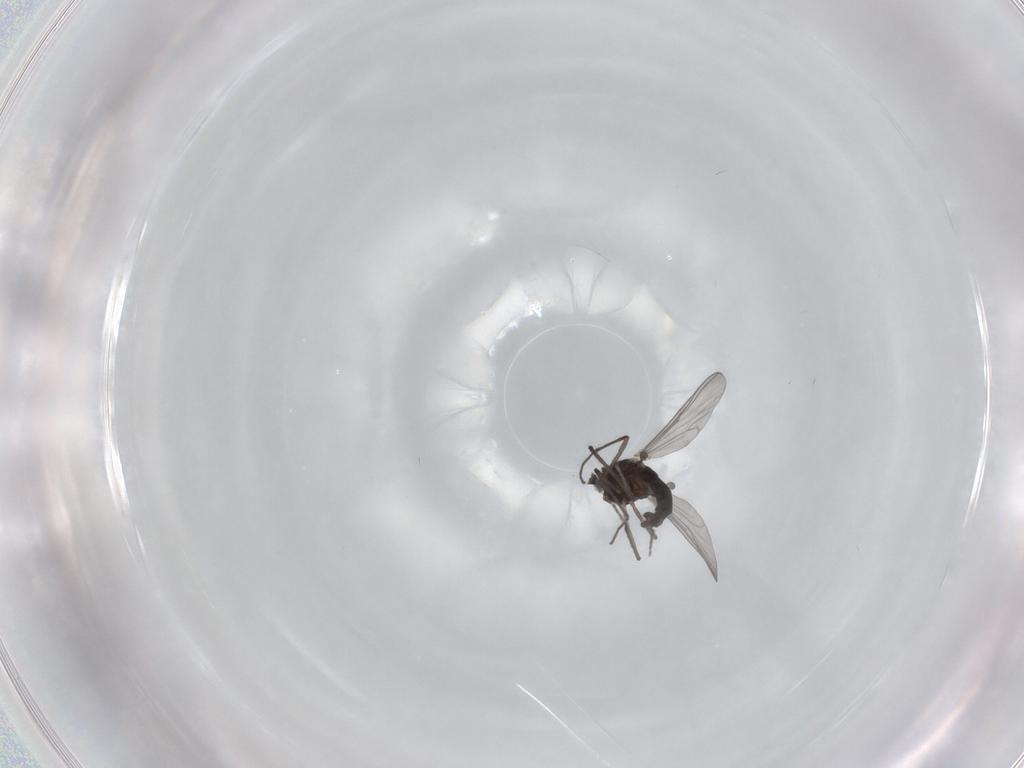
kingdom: Animalia
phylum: Arthropoda
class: Insecta
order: Diptera
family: Chironomidae
